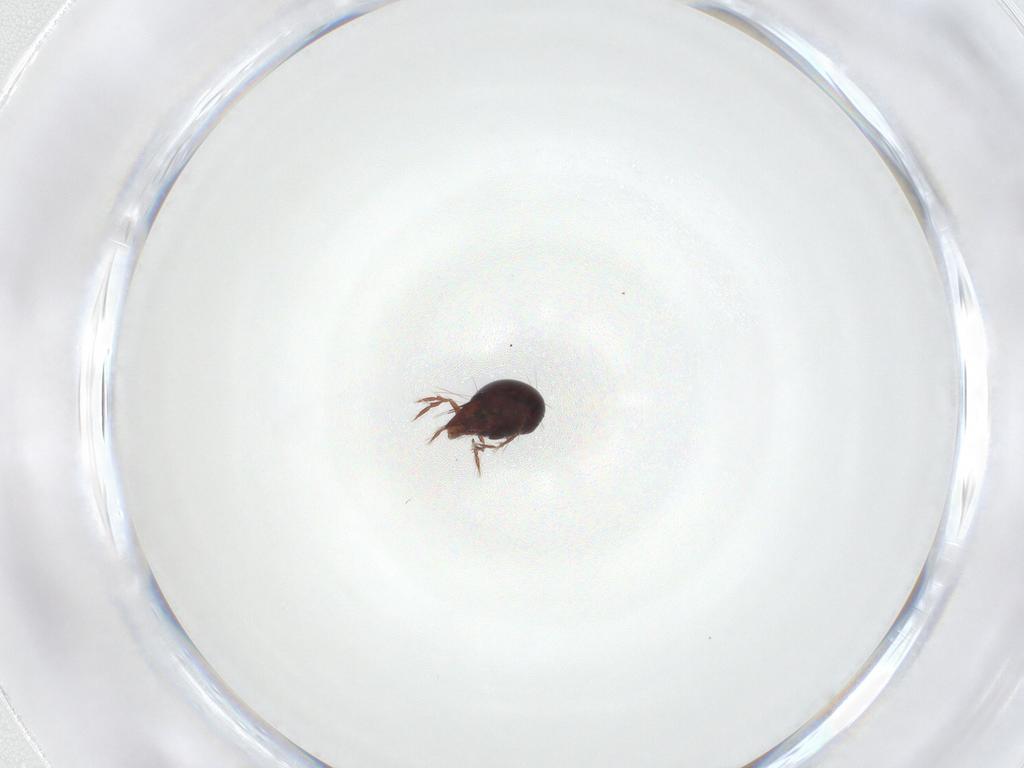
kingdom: Animalia
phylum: Arthropoda
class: Arachnida
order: Sarcoptiformes
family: Ceratoppiidae
